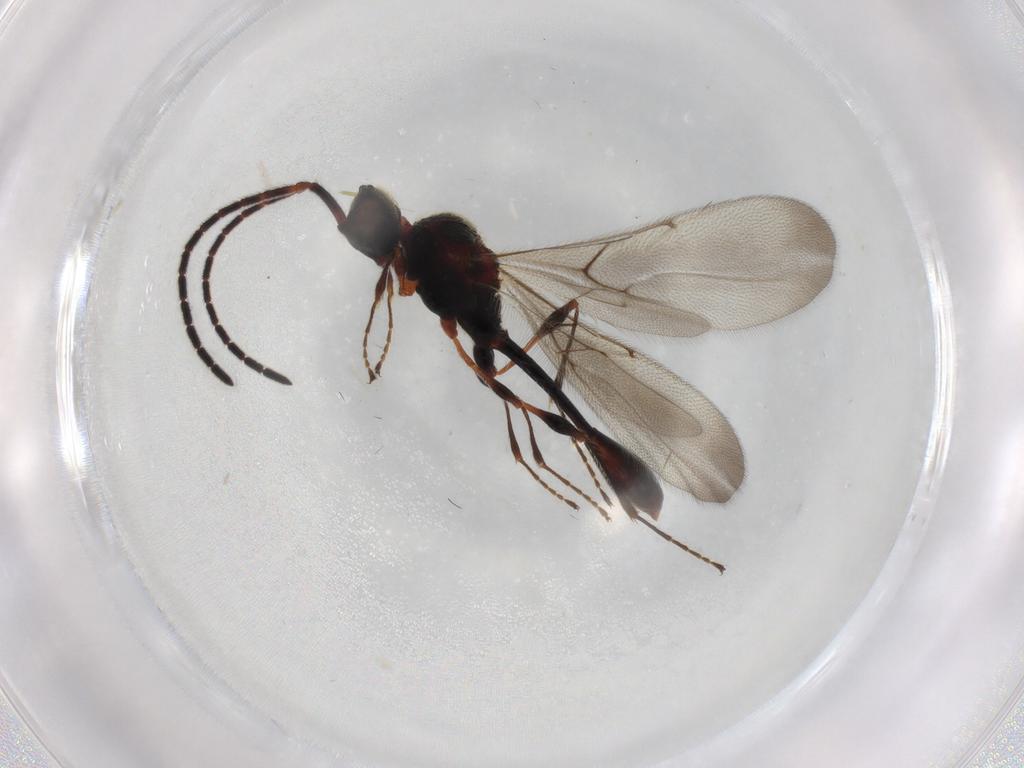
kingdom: Animalia
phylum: Arthropoda
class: Insecta
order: Hymenoptera
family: Diapriidae
